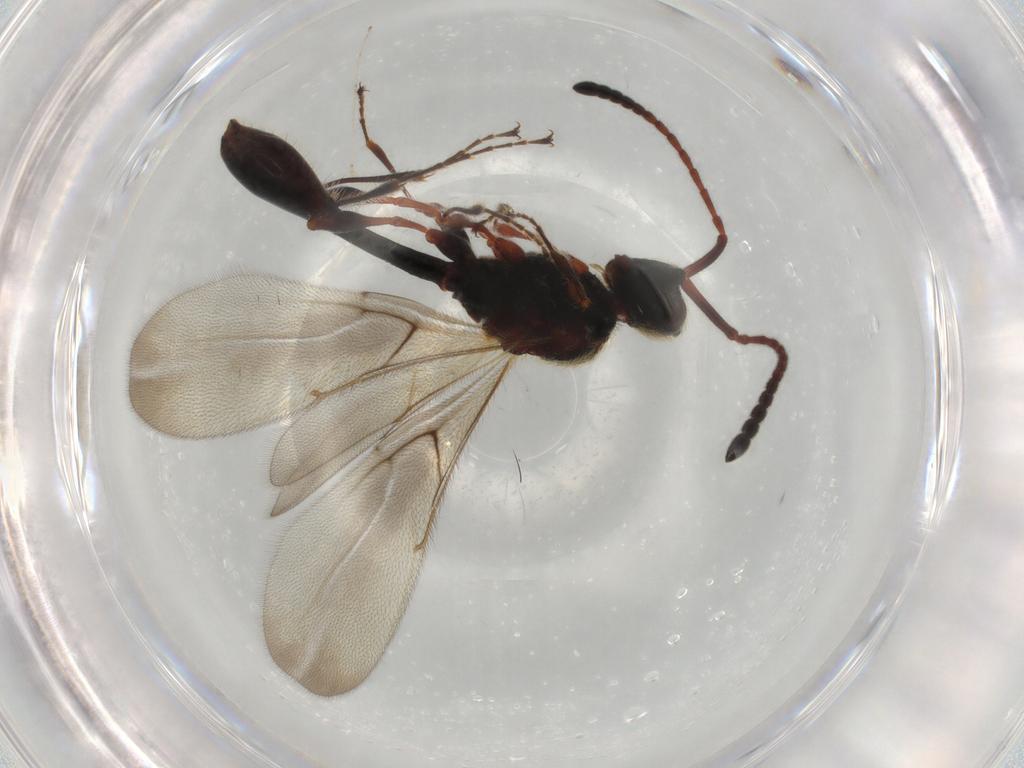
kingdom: Animalia
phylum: Arthropoda
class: Insecta
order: Hymenoptera
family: Diapriidae
